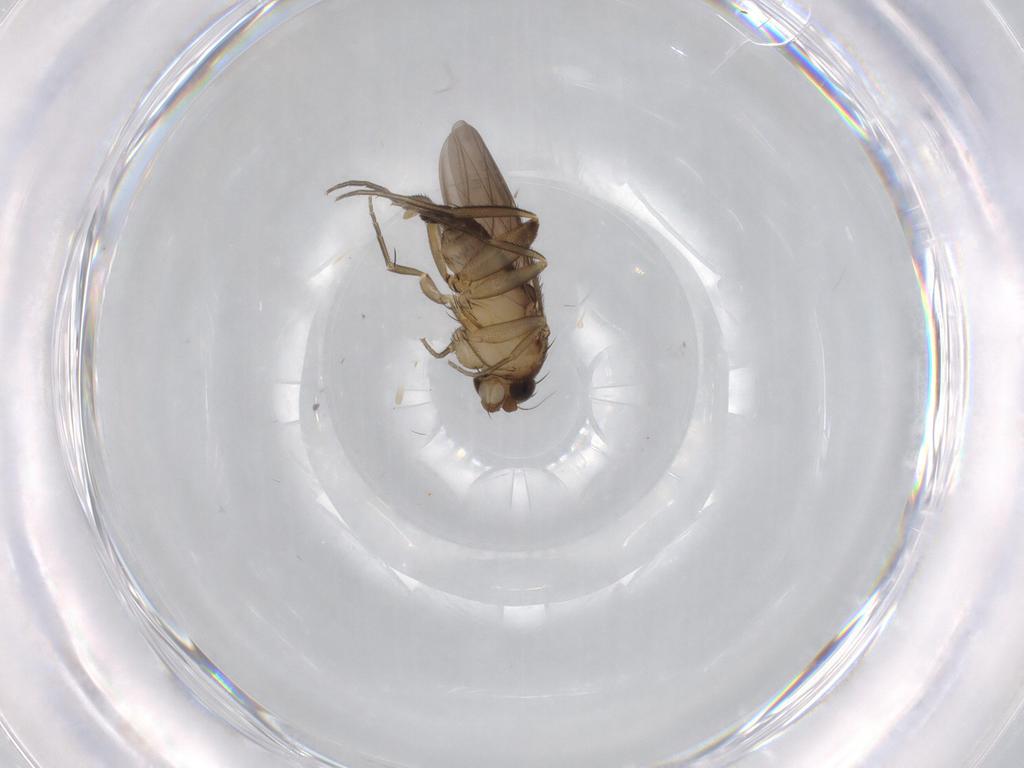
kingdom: Animalia
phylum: Arthropoda
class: Insecta
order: Diptera
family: Phoridae
